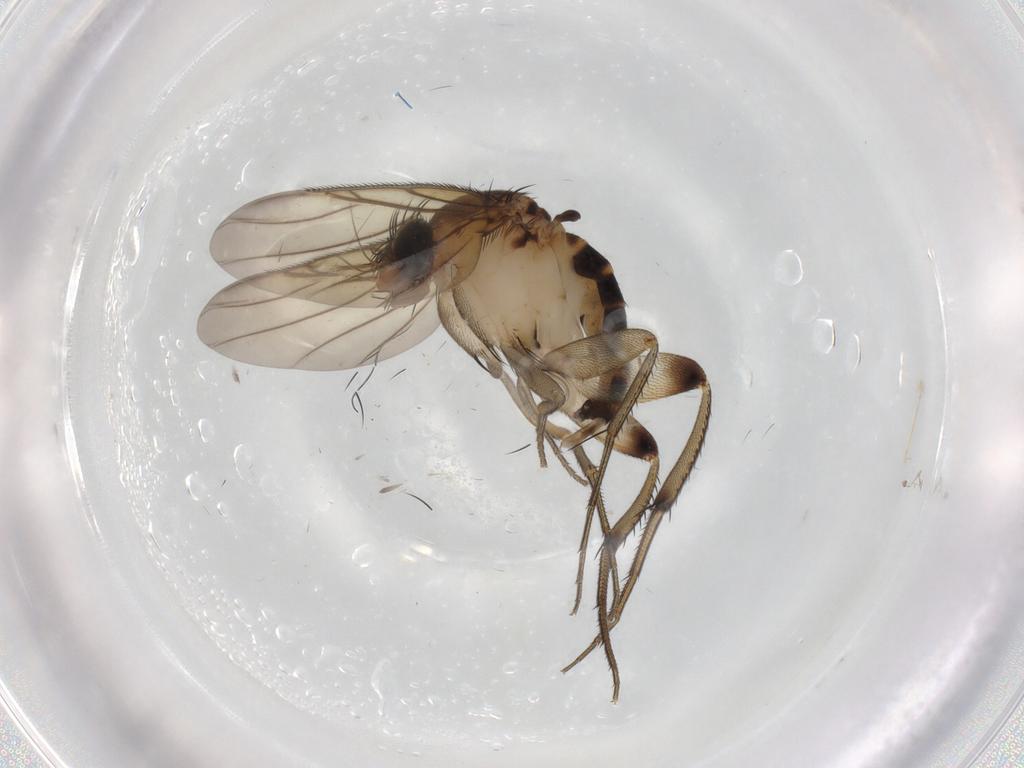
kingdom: Animalia
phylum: Arthropoda
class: Insecta
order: Diptera
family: Phoridae
